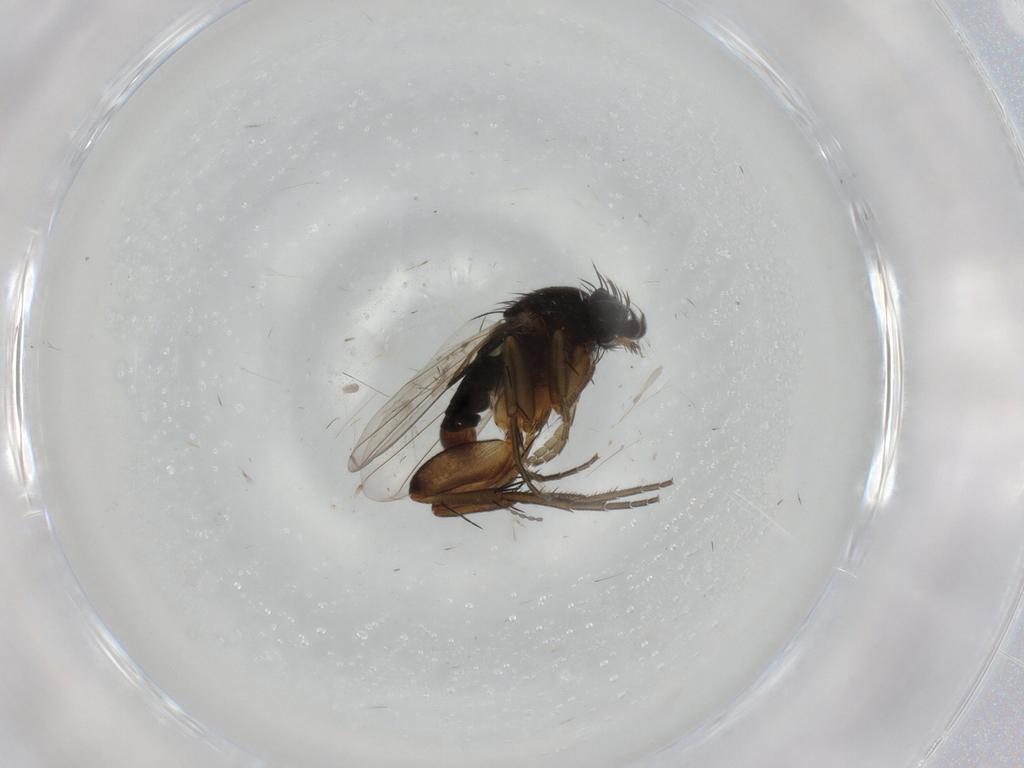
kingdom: Animalia
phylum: Arthropoda
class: Insecta
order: Diptera
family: Phoridae
